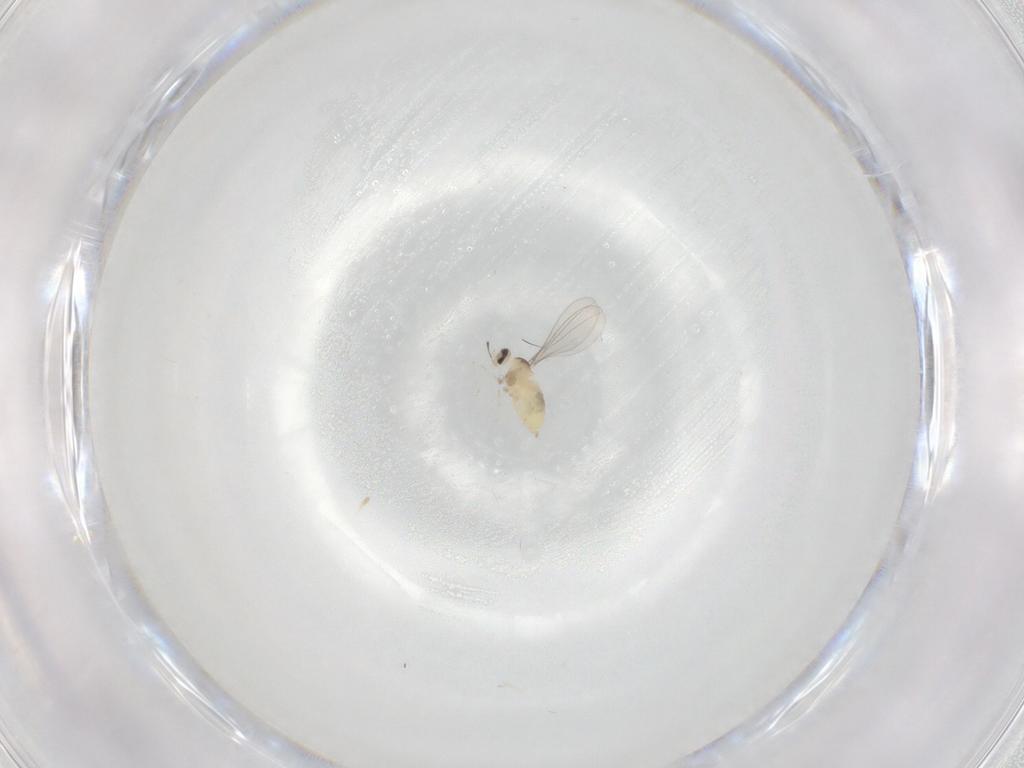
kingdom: Animalia
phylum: Arthropoda
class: Insecta
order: Diptera
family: Cecidomyiidae
